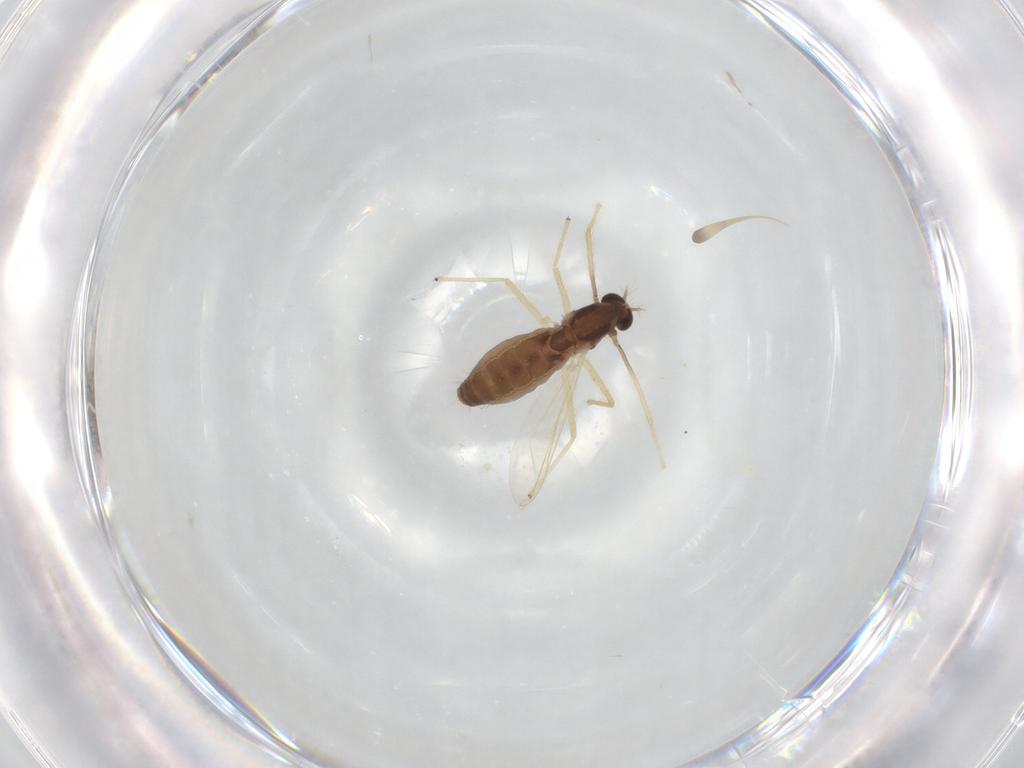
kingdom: Animalia
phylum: Arthropoda
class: Insecta
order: Diptera
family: Chironomidae
